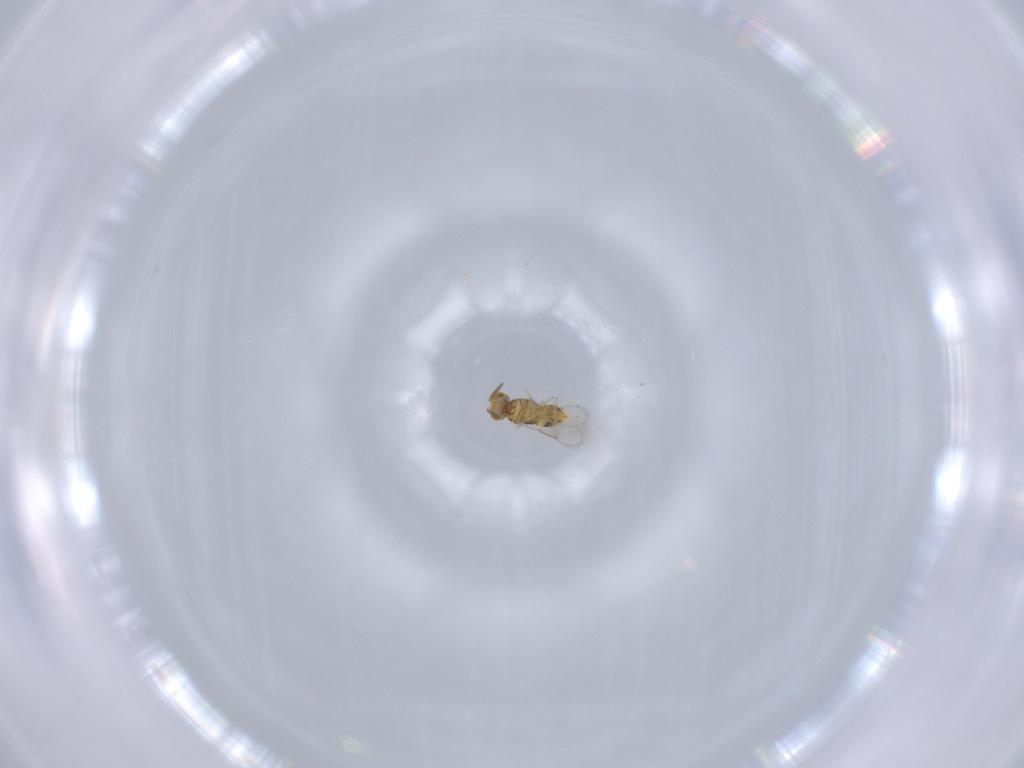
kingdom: Animalia
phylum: Arthropoda
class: Insecta
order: Hymenoptera
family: Aphelinidae
